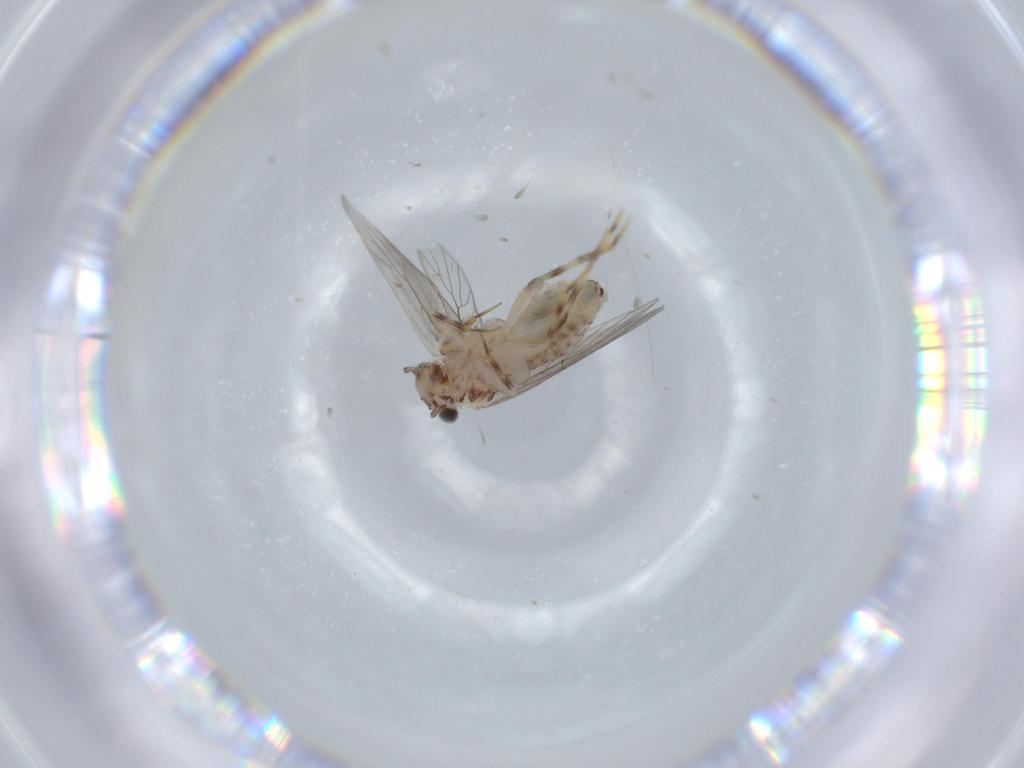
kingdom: Animalia
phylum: Arthropoda
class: Insecta
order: Psocodea
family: Lepidopsocidae
